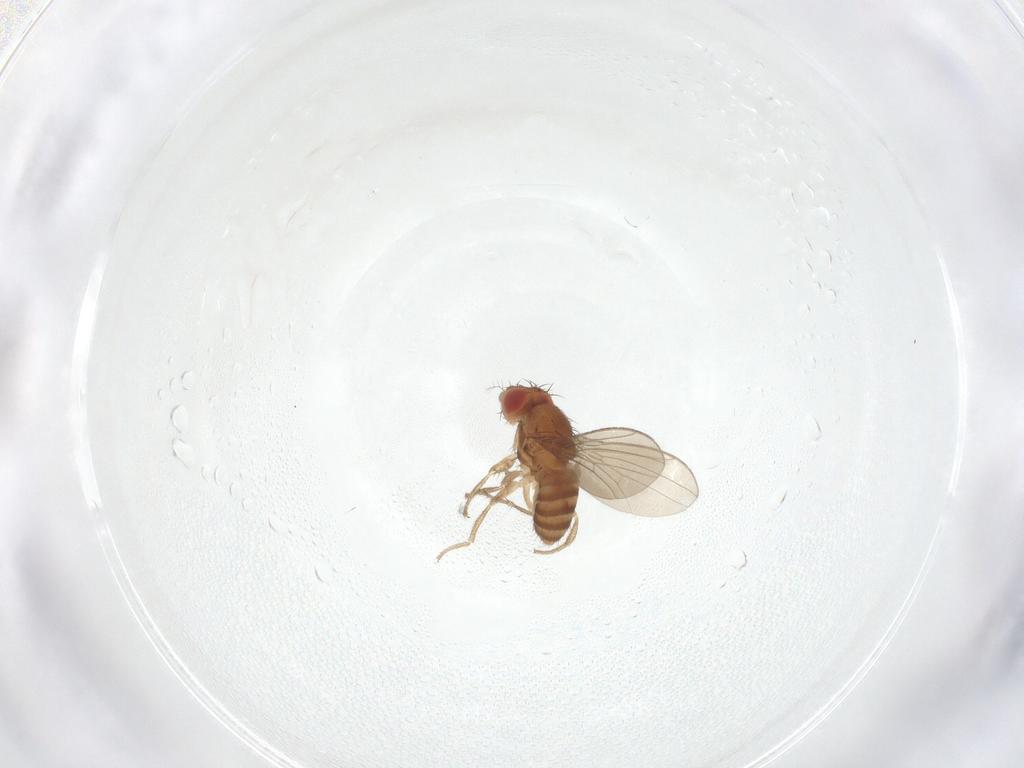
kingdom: Animalia
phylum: Arthropoda
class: Insecta
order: Diptera
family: Ephydridae
